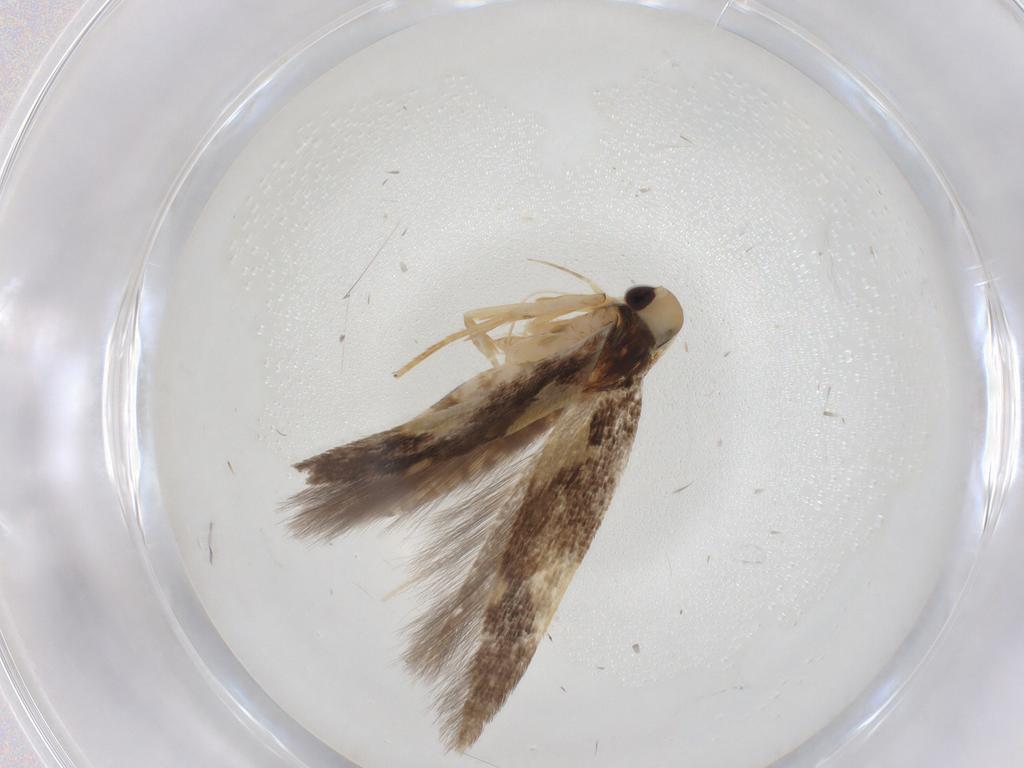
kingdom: Animalia
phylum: Arthropoda
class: Insecta
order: Lepidoptera
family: Cosmopterigidae
